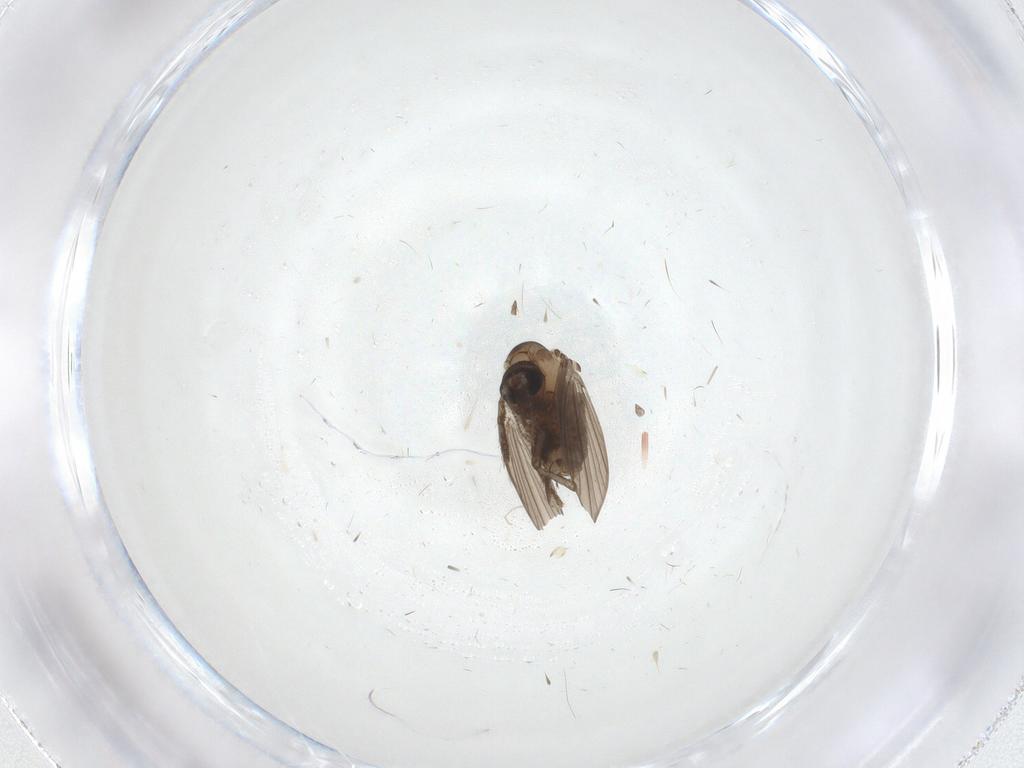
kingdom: Animalia
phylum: Arthropoda
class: Insecta
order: Diptera
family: Psychodidae
